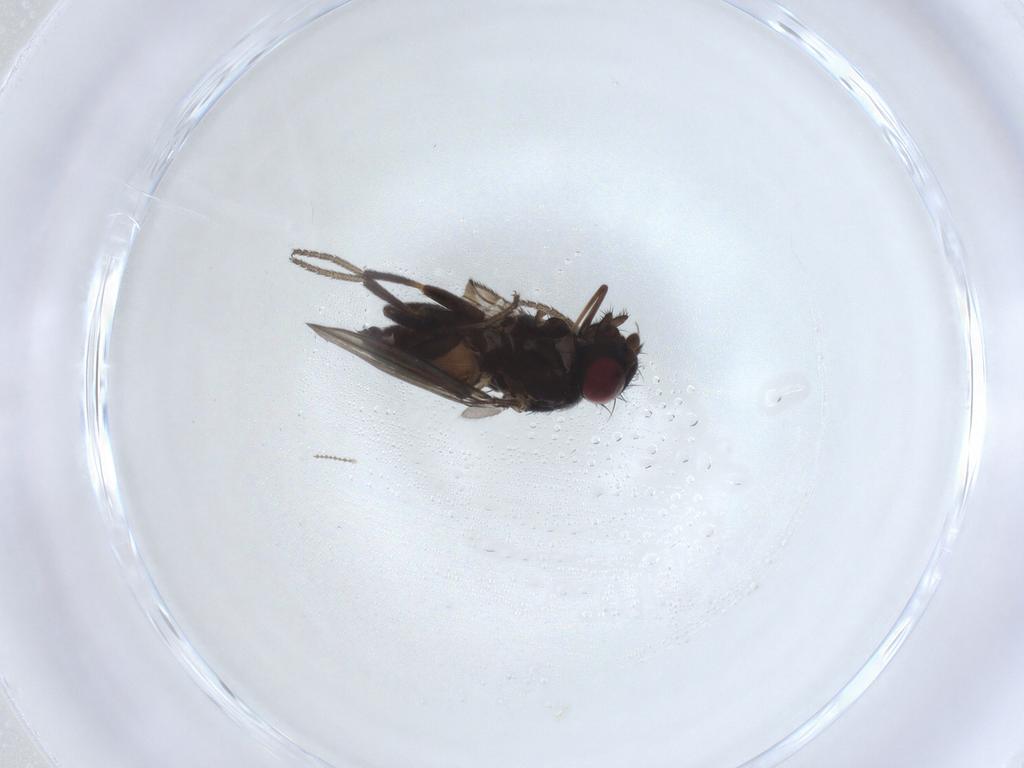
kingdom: Animalia
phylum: Arthropoda
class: Insecta
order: Diptera
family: Milichiidae
